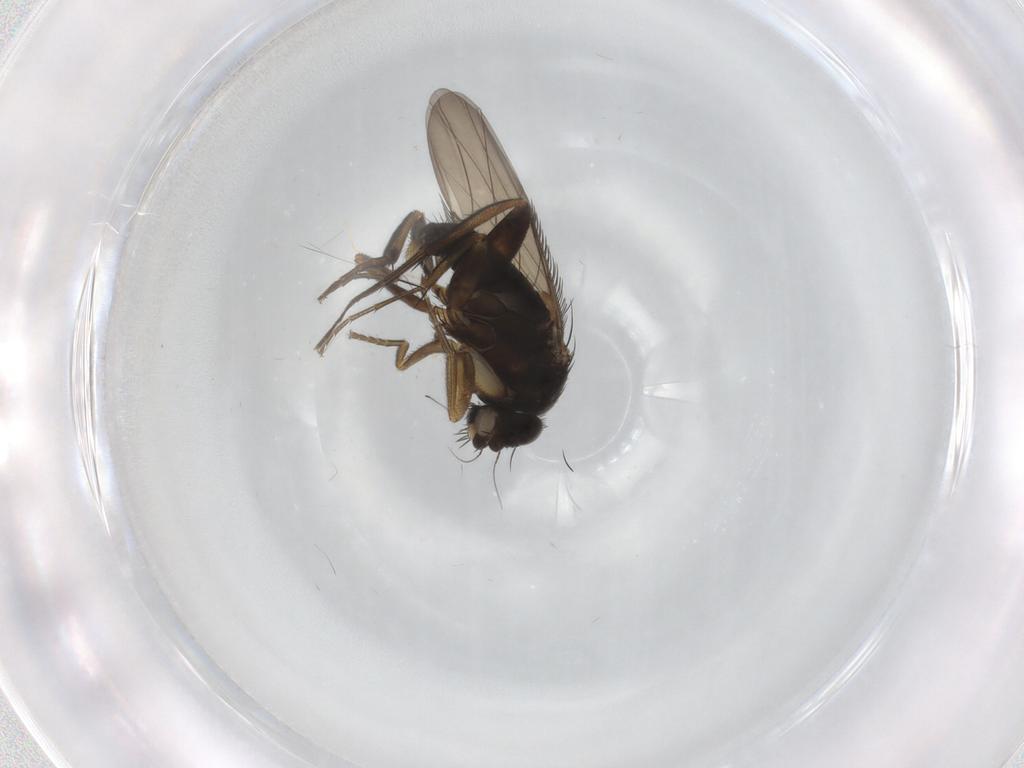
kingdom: Animalia
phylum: Arthropoda
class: Insecta
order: Diptera
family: Phoridae
